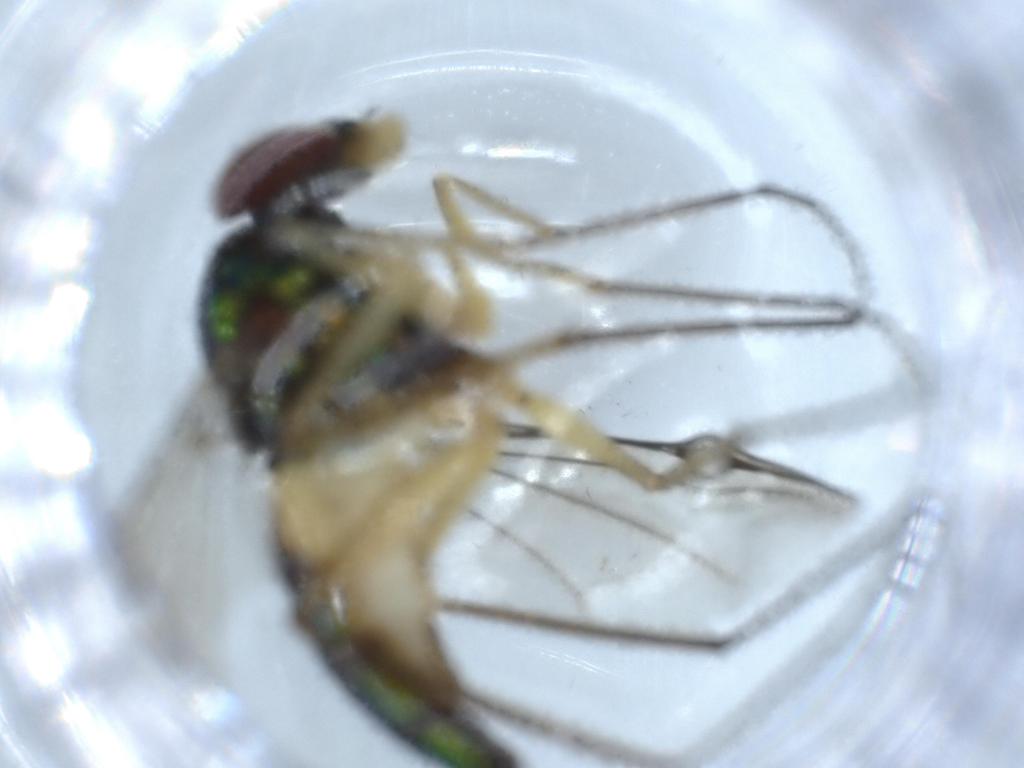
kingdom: Animalia
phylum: Arthropoda
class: Insecta
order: Diptera
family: Dolichopodidae
